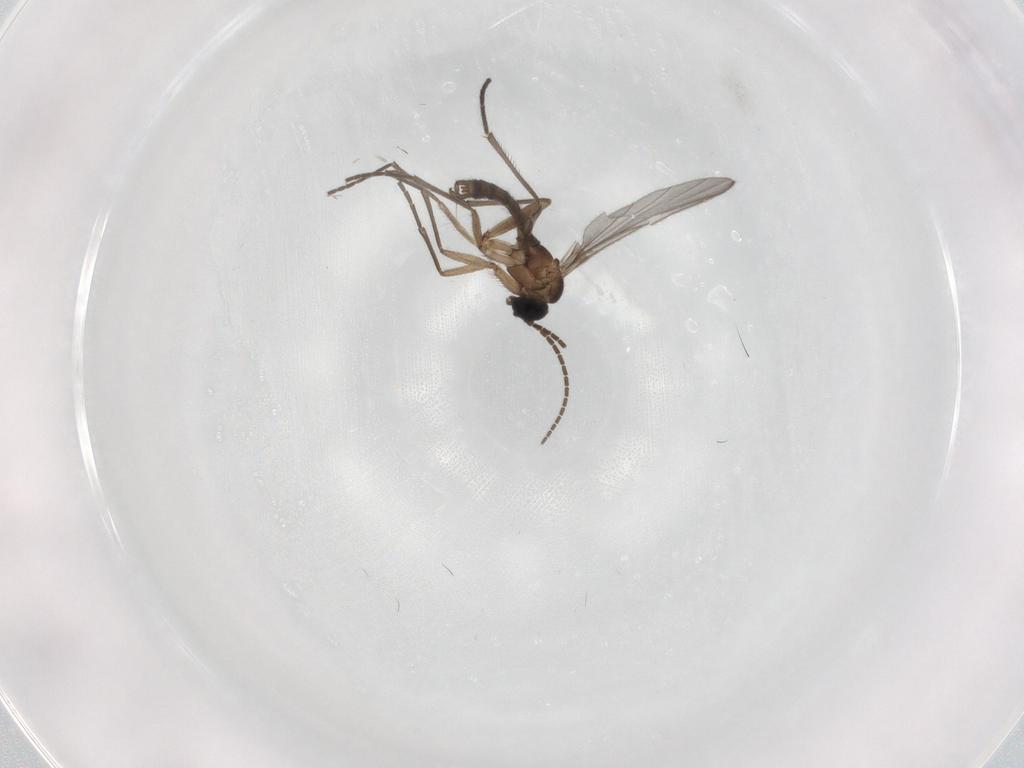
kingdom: Animalia
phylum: Arthropoda
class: Insecta
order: Diptera
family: Sciaridae
